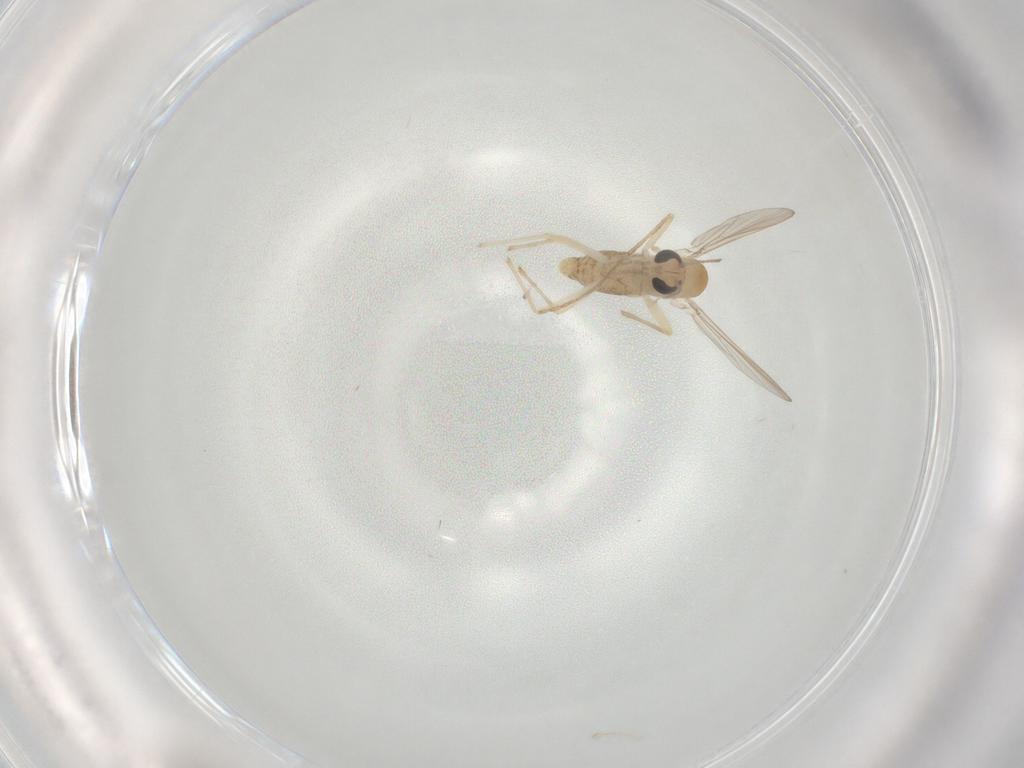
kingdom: Animalia
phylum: Arthropoda
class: Insecta
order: Diptera
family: Chironomidae
